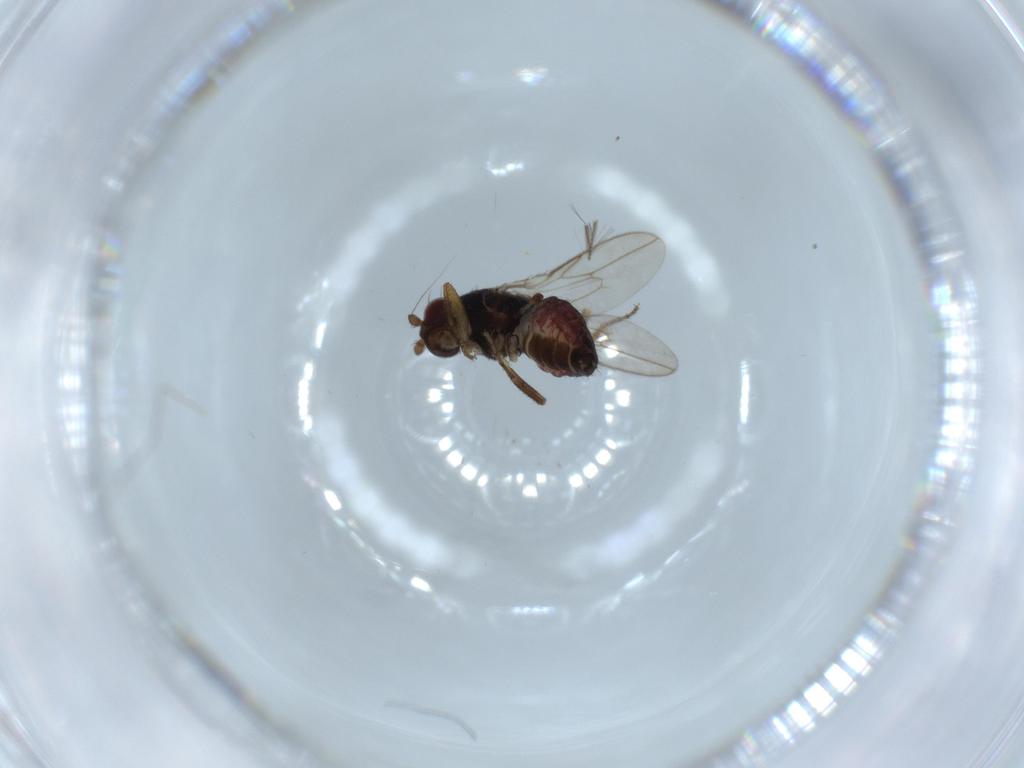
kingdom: Animalia
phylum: Arthropoda
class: Insecta
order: Diptera
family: Sphaeroceridae
